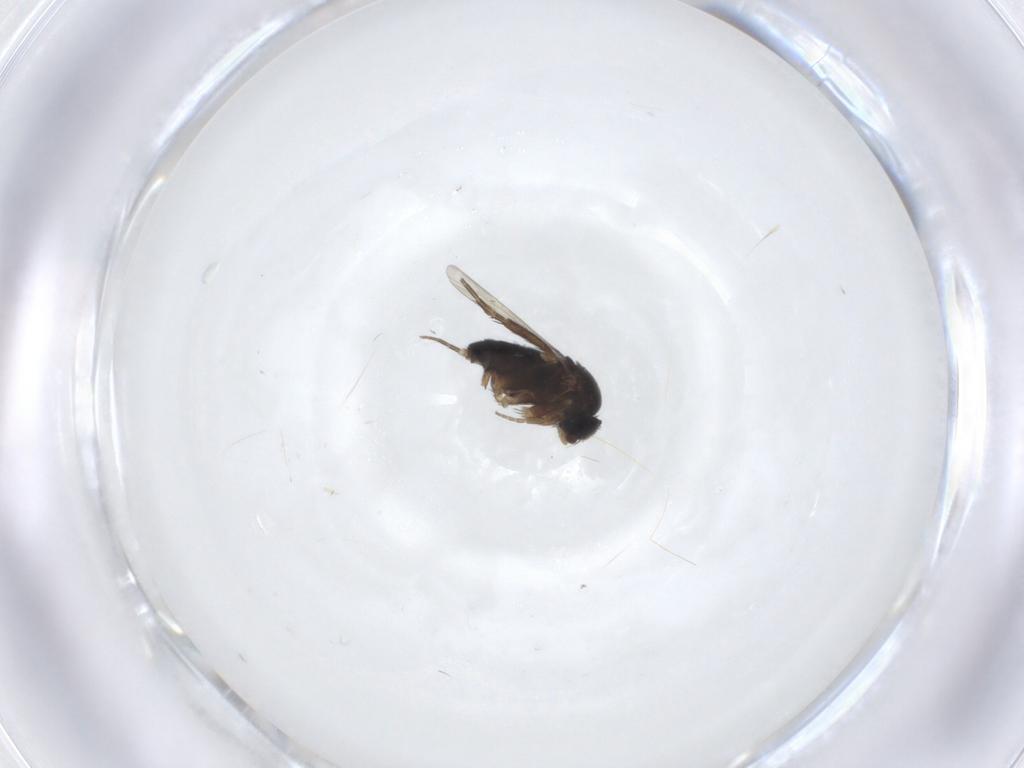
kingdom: Animalia
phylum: Arthropoda
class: Insecta
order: Diptera
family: Phoridae
